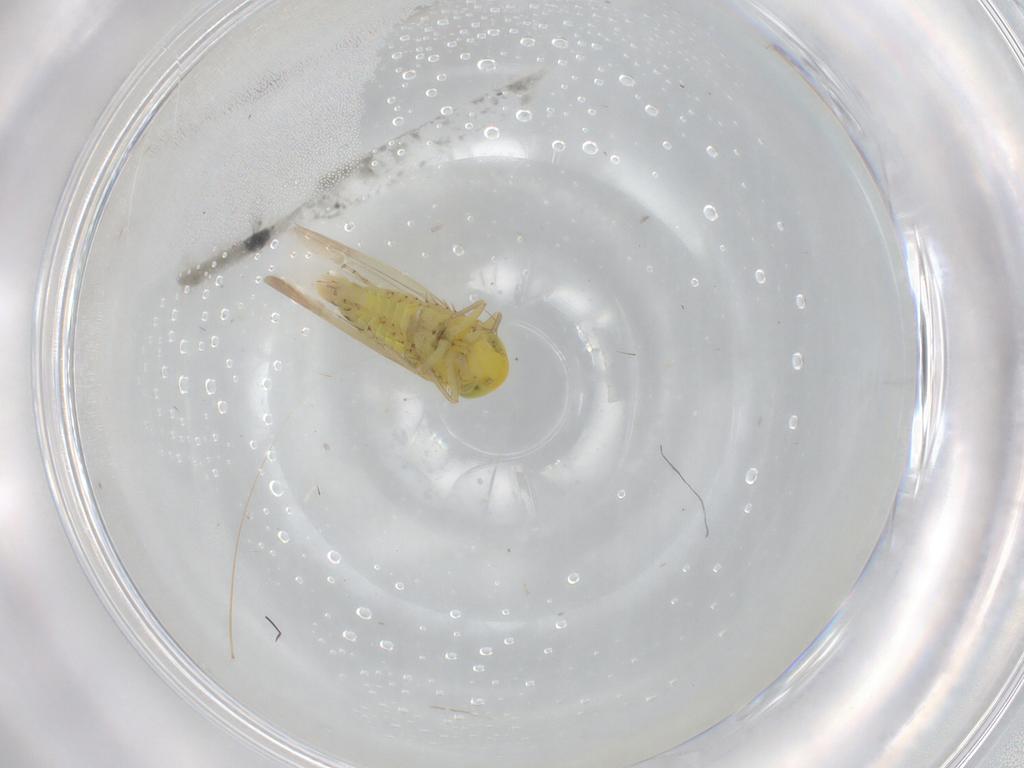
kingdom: Animalia
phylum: Arthropoda
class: Insecta
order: Hemiptera
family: Cicadellidae
